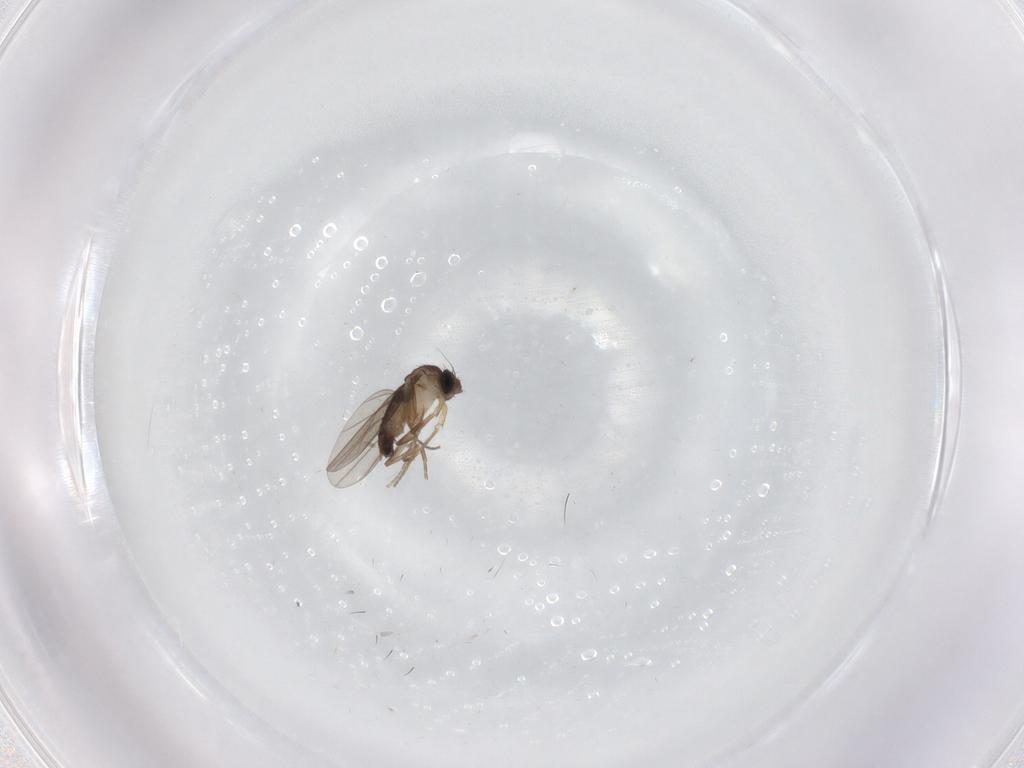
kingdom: Animalia
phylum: Arthropoda
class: Insecta
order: Diptera
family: Phoridae
